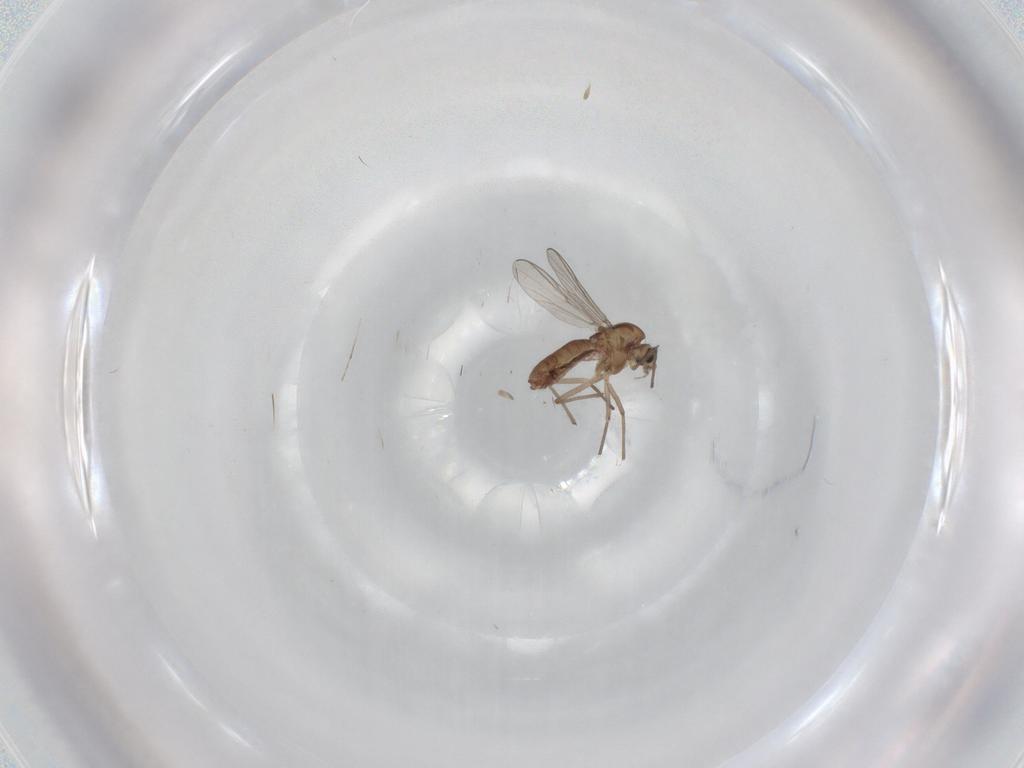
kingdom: Animalia
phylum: Arthropoda
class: Insecta
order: Diptera
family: Chironomidae
